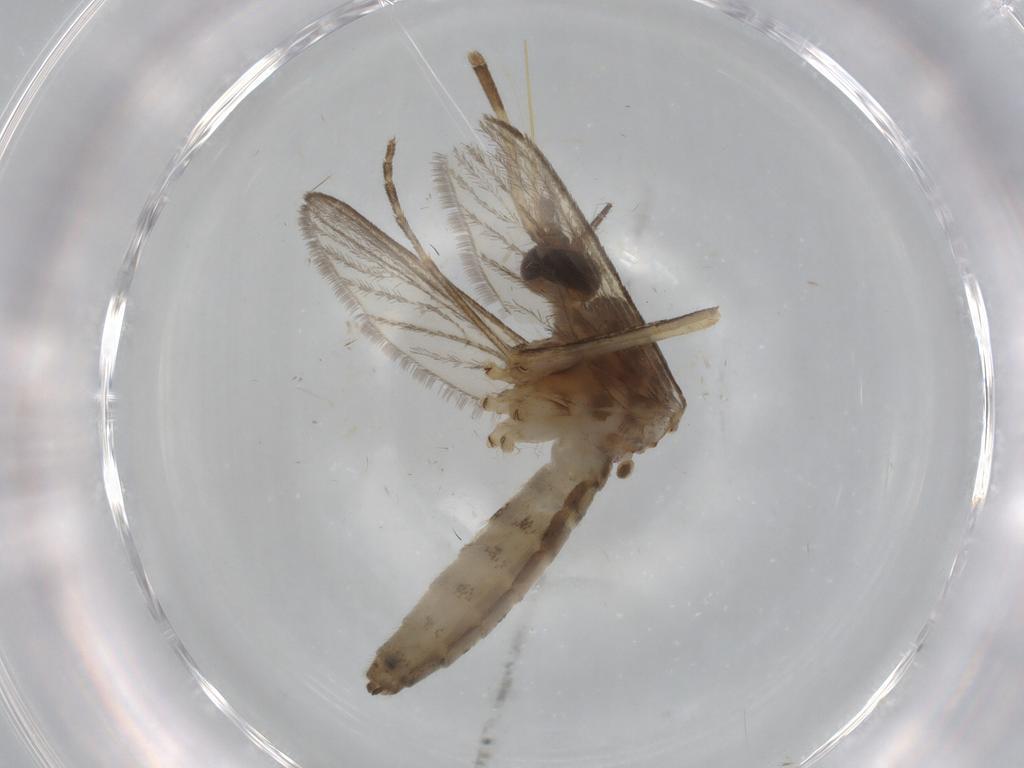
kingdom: Animalia
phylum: Arthropoda
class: Insecta
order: Diptera
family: Ceratopogonidae
